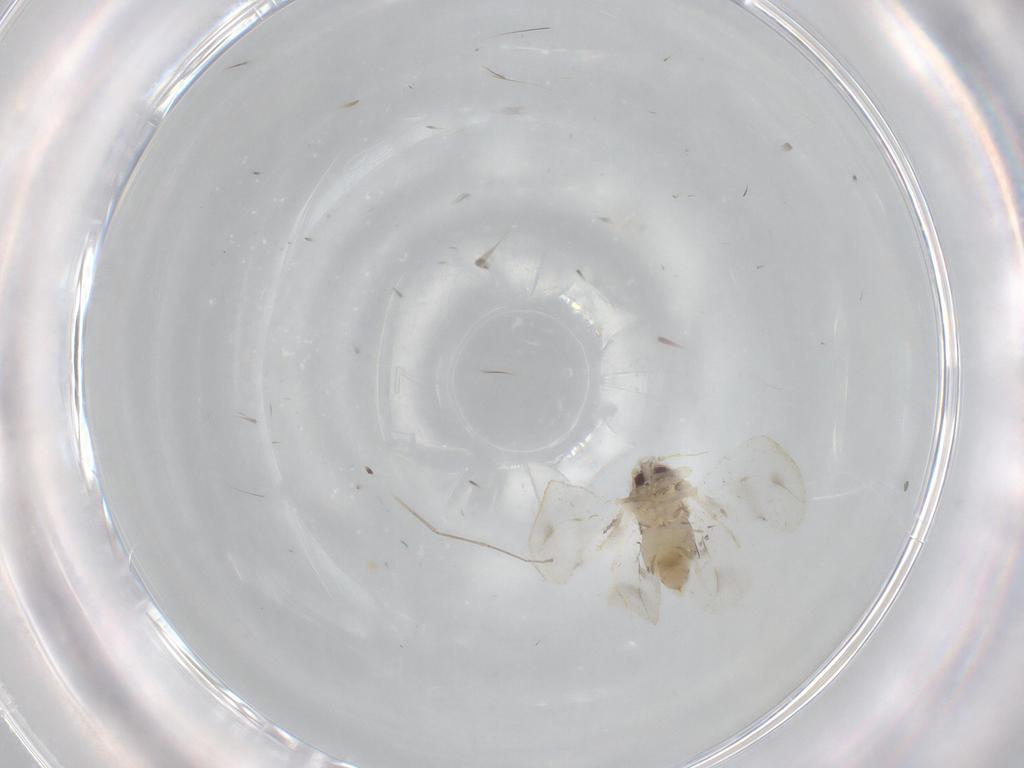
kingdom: Animalia
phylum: Arthropoda
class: Insecta
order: Hemiptera
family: Aleyrodidae
